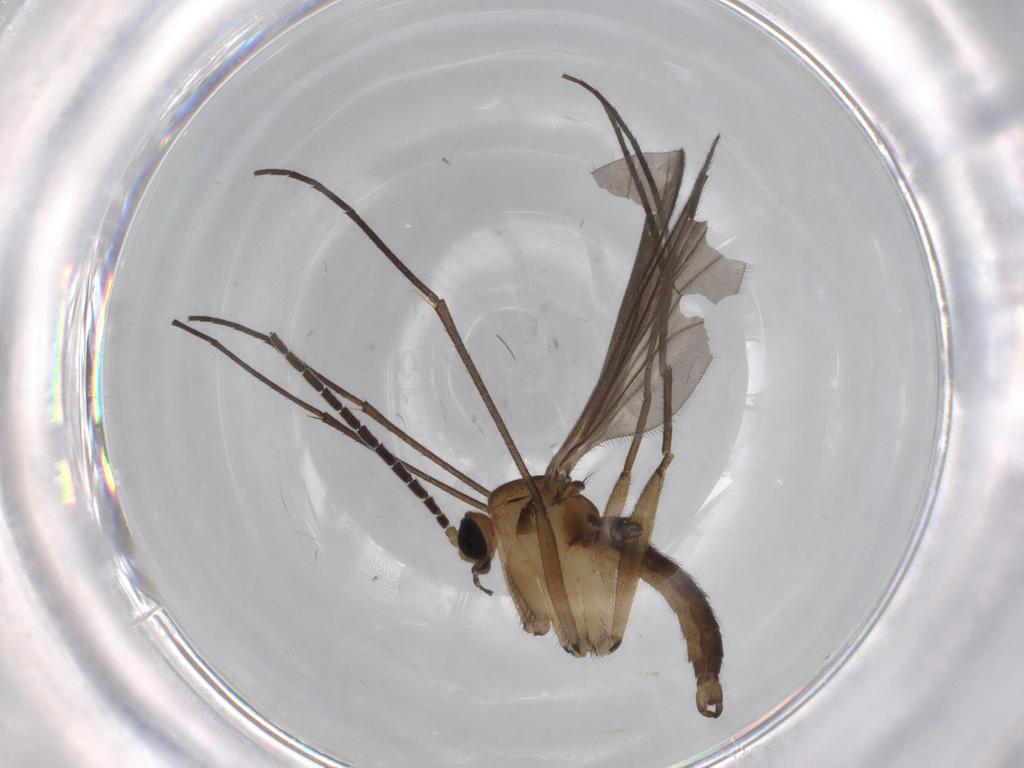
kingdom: Animalia
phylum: Arthropoda
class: Insecta
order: Diptera
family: Sciaridae
